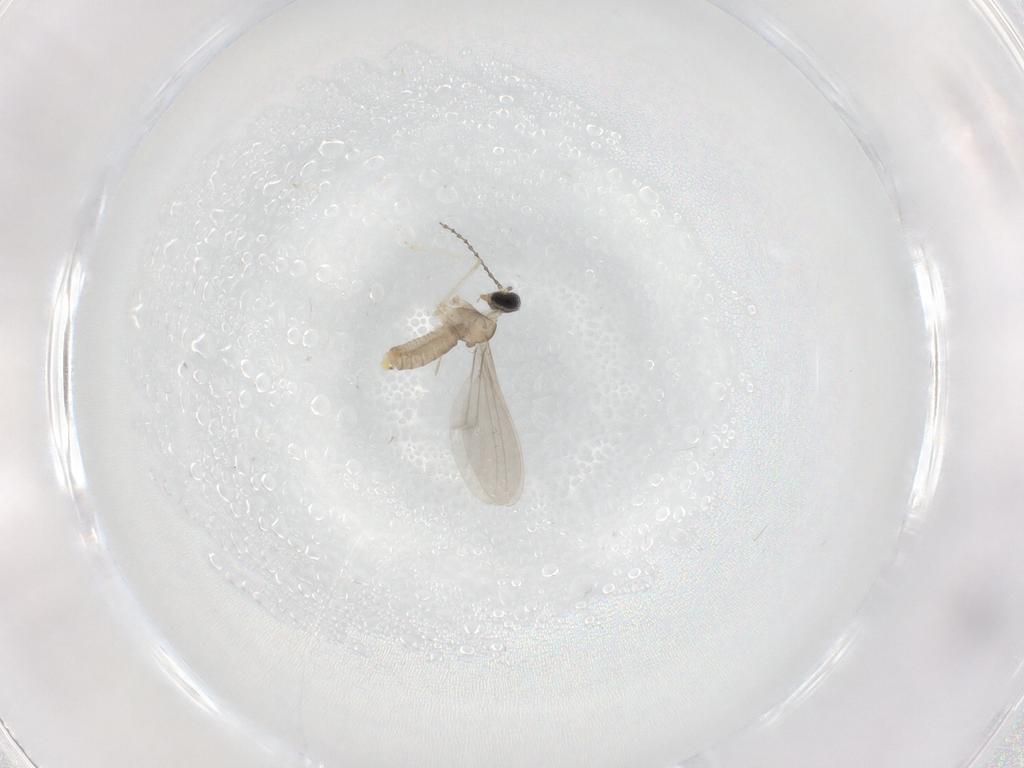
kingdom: Animalia
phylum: Arthropoda
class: Insecta
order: Diptera
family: Cecidomyiidae
